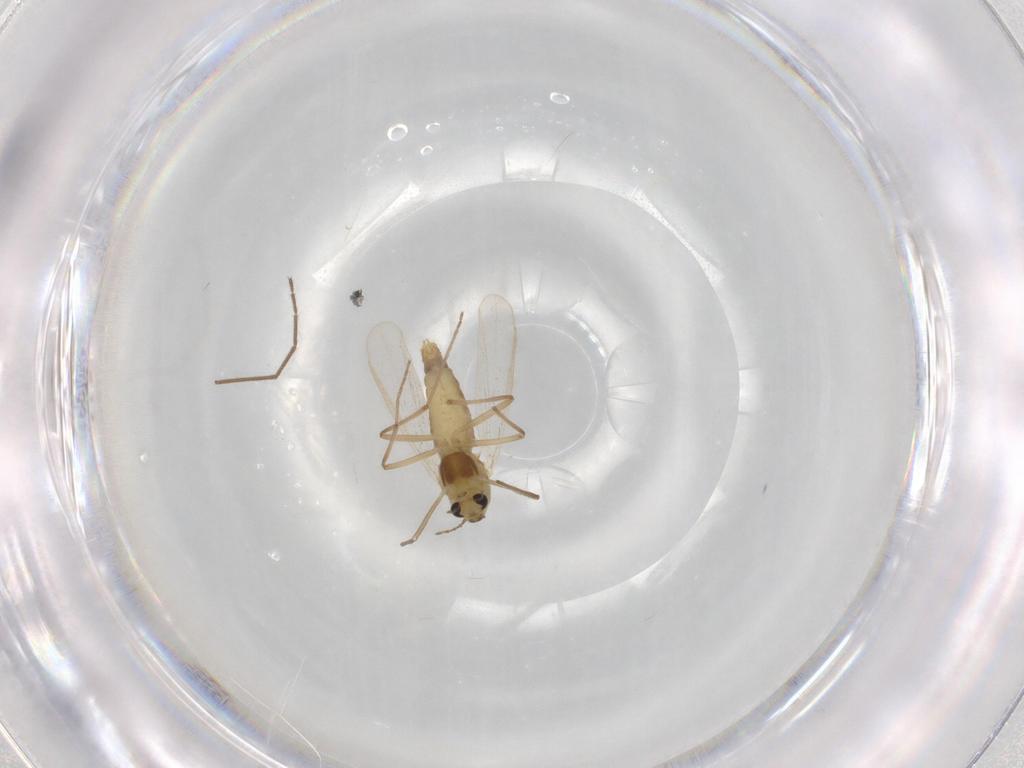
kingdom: Animalia
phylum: Arthropoda
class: Insecta
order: Diptera
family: Chironomidae
